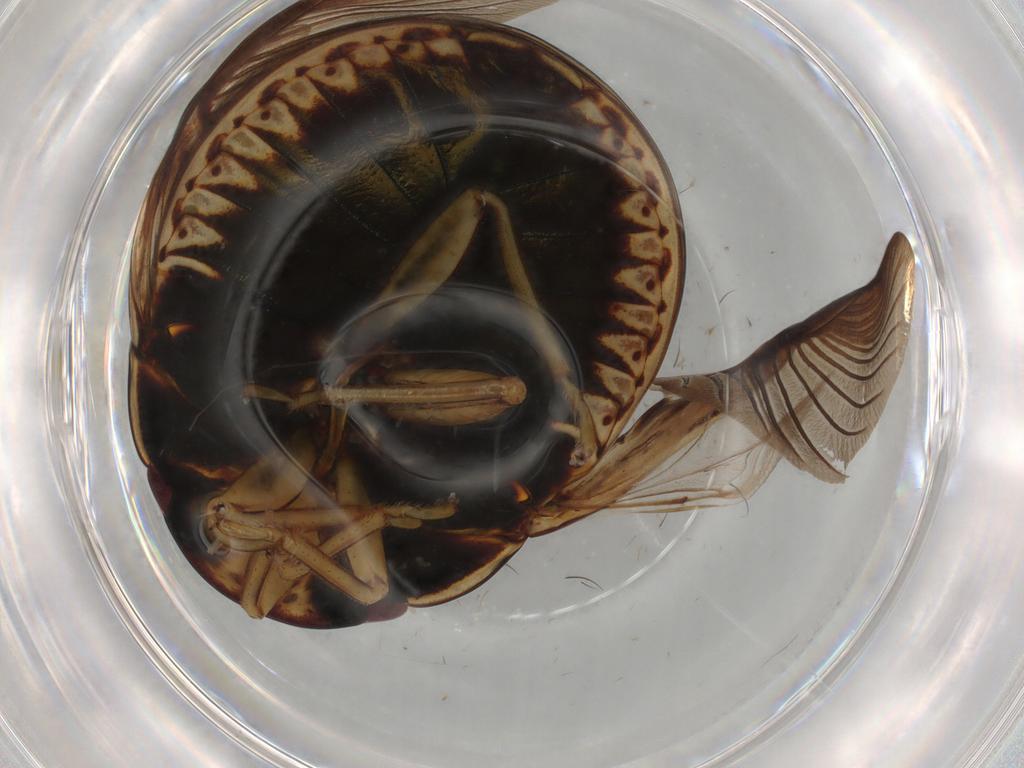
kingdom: Animalia
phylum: Arthropoda
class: Insecta
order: Coleoptera
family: Elateridae
